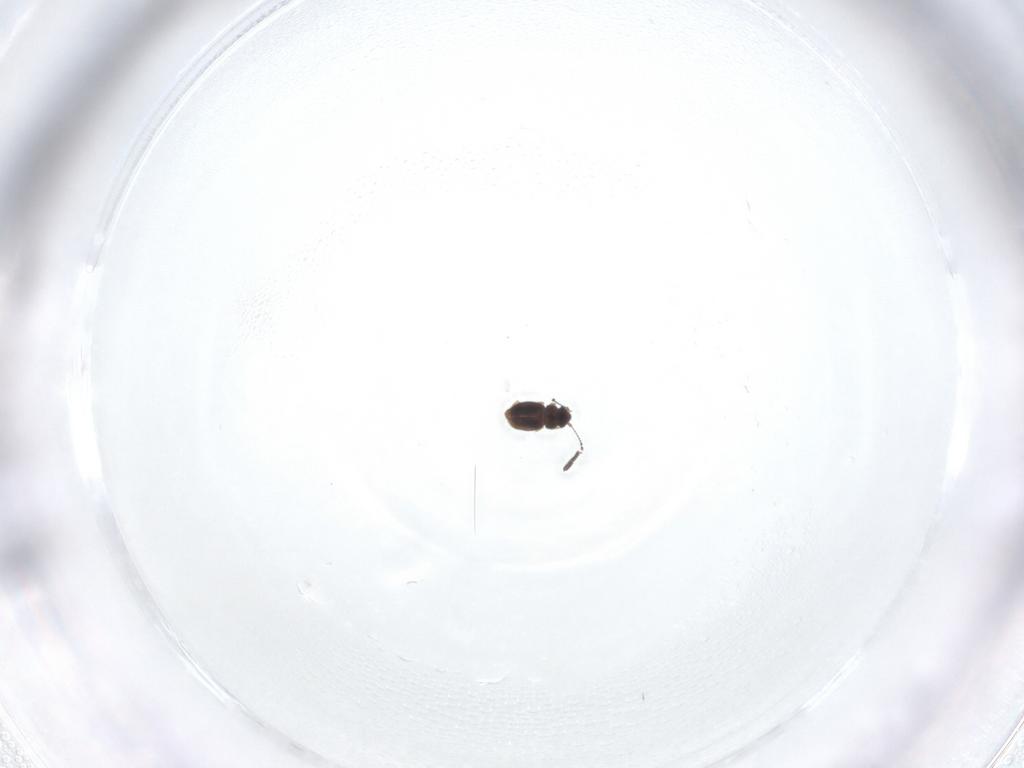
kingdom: Animalia
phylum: Arthropoda
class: Insecta
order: Coleoptera
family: Ptiliidae
